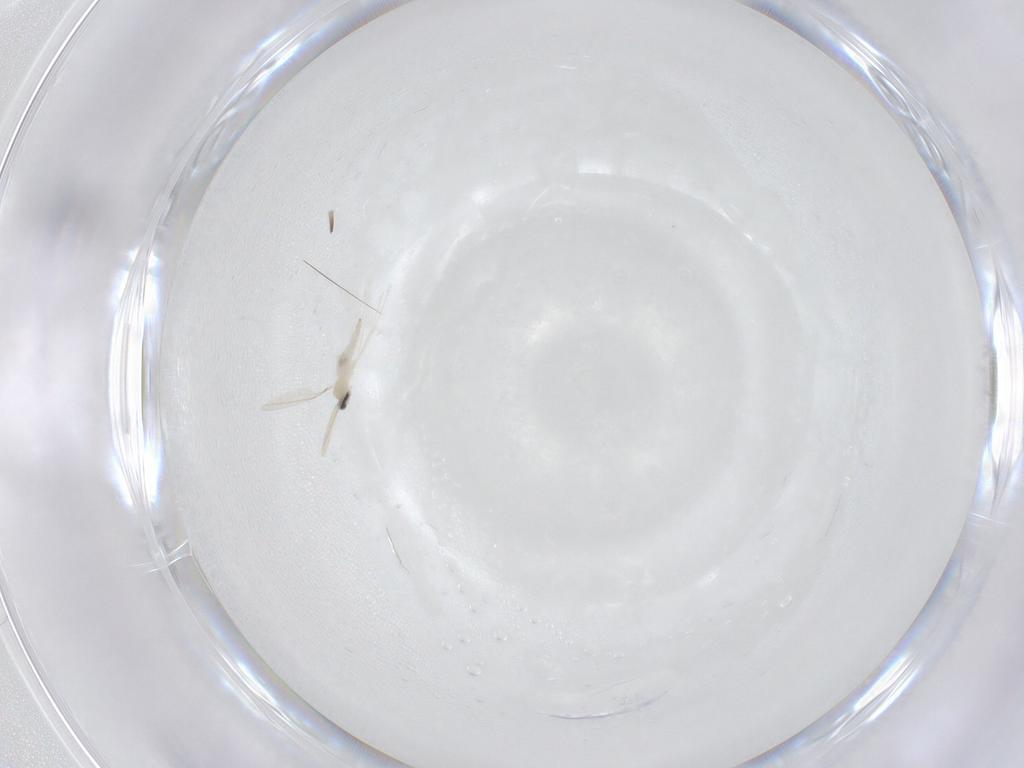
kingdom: Animalia
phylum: Arthropoda
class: Insecta
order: Diptera
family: Cecidomyiidae
